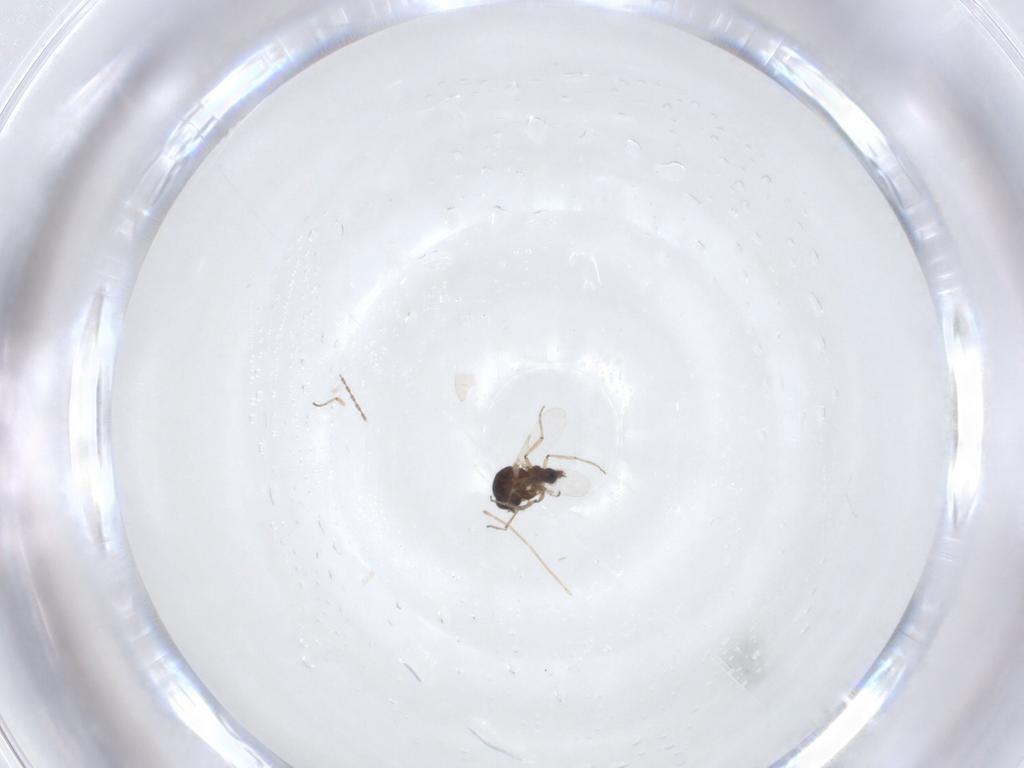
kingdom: Animalia
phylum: Arthropoda
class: Insecta
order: Diptera
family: Ceratopogonidae
